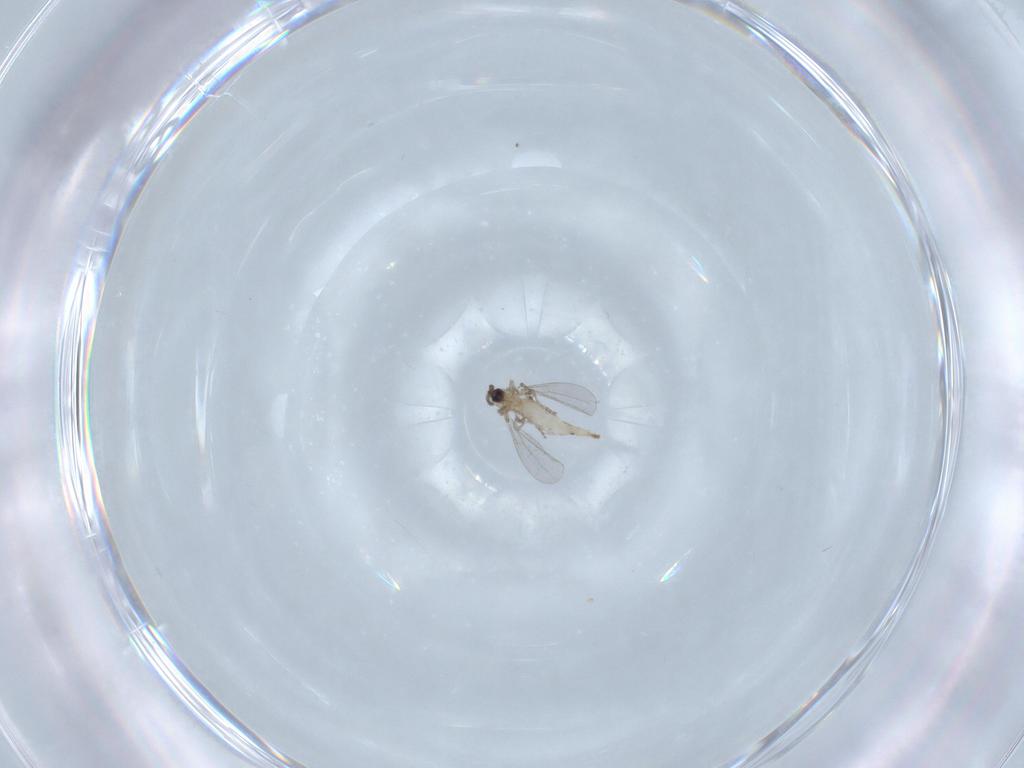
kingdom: Animalia
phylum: Arthropoda
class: Insecta
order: Diptera
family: Cecidomyiidae
